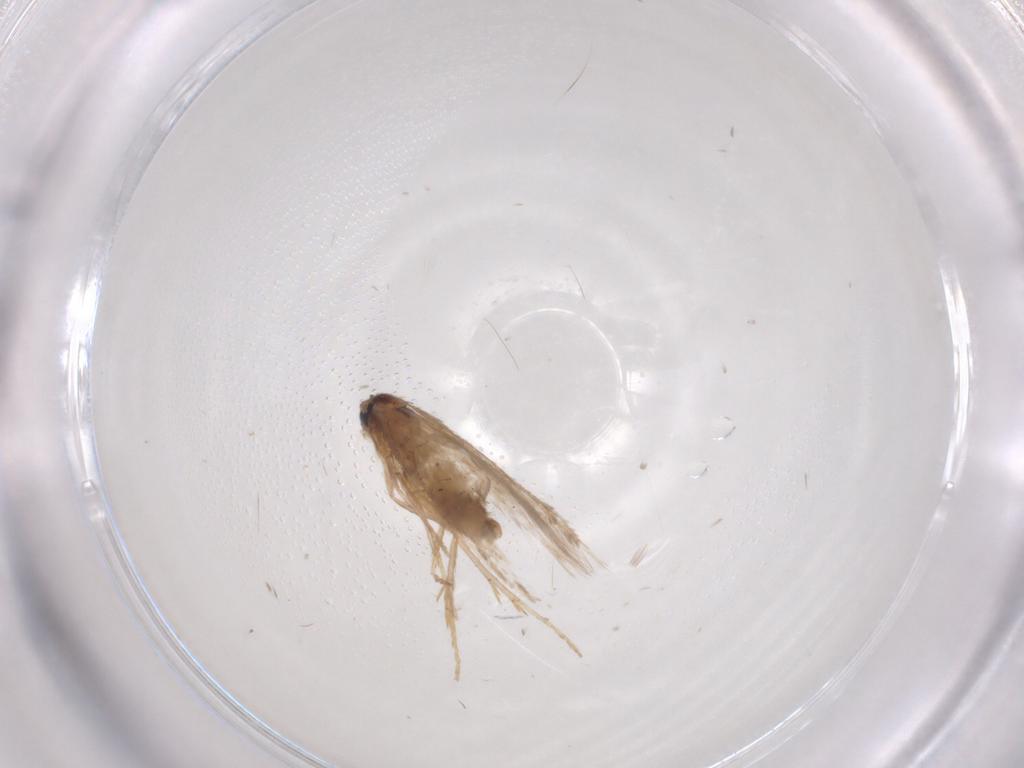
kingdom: Animalia
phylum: Arthropoda
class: Insecta
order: Lepidoptera
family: Nepticulidae
